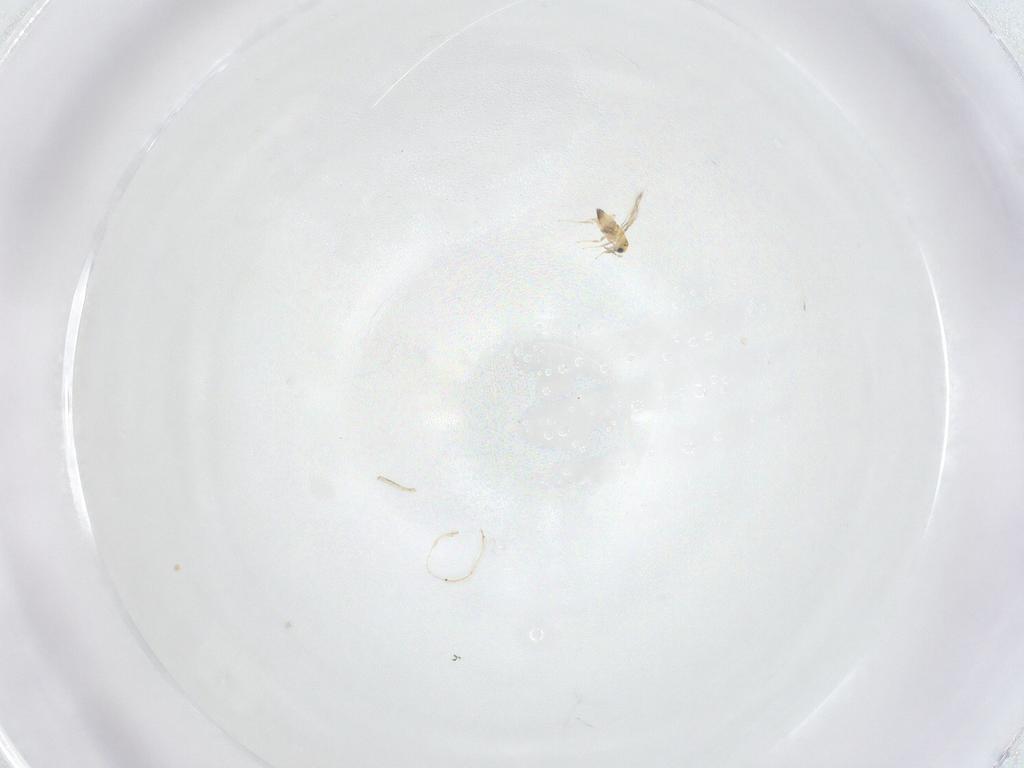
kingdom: Animalia
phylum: Arthropoda
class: Insecta
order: Hymenoptera
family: Trichogrammatidae
